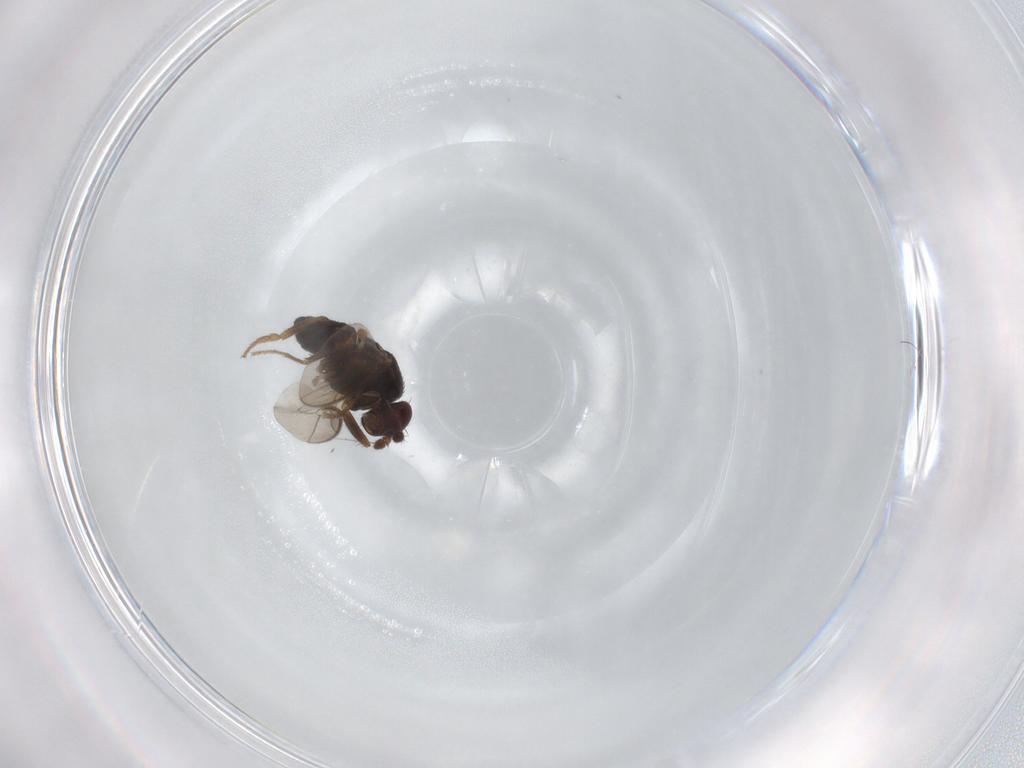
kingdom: Animalia
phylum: Arthropoda
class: Insecta
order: Diptera
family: Sphaeroceridae
